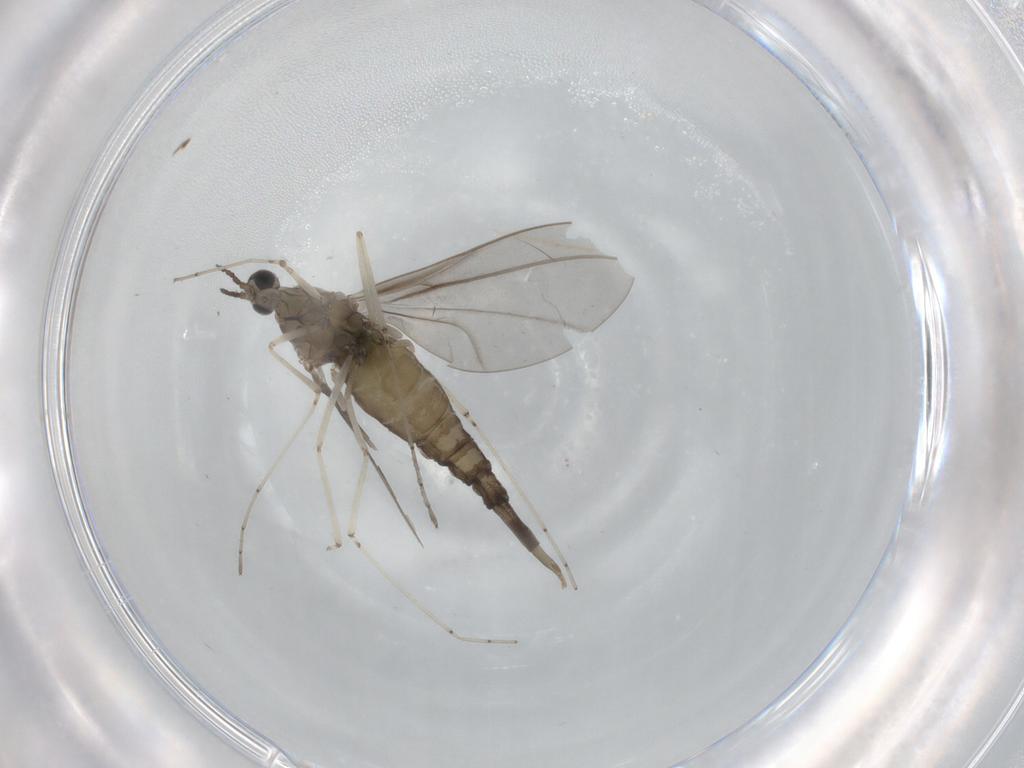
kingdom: Animalia
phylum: Arthropoda
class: Insecta
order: Diptera
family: Cecidomyiidae
